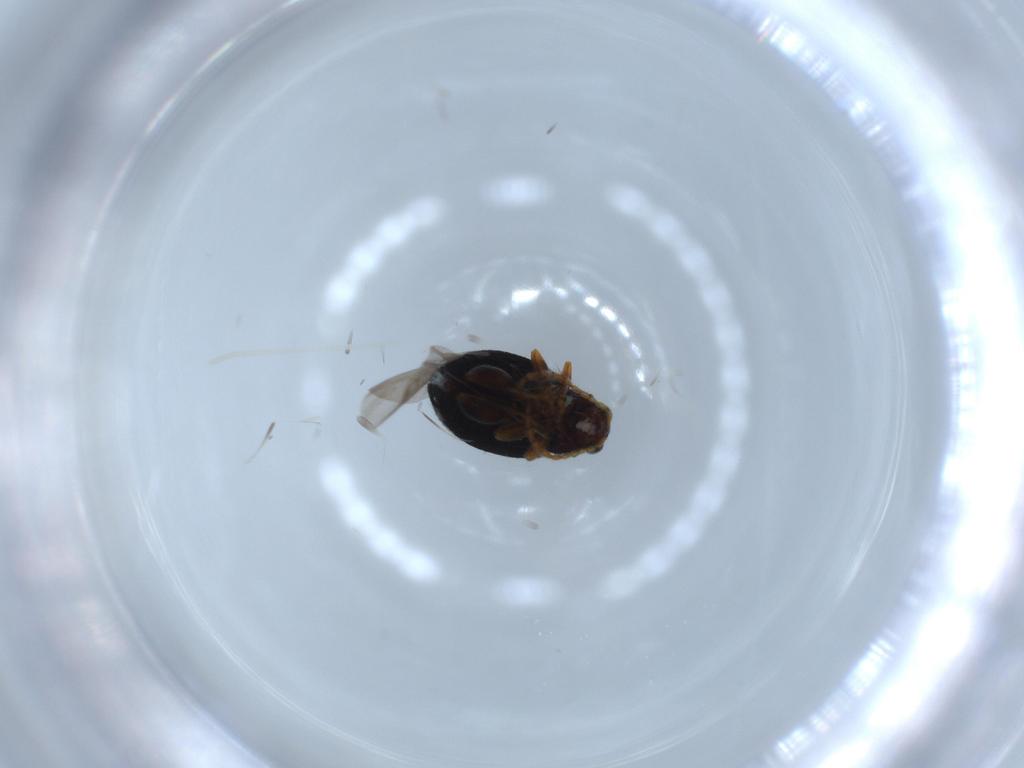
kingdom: Animalia
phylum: Arthropoda
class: Insecta
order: Coleoptera
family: Chrysomelidae
